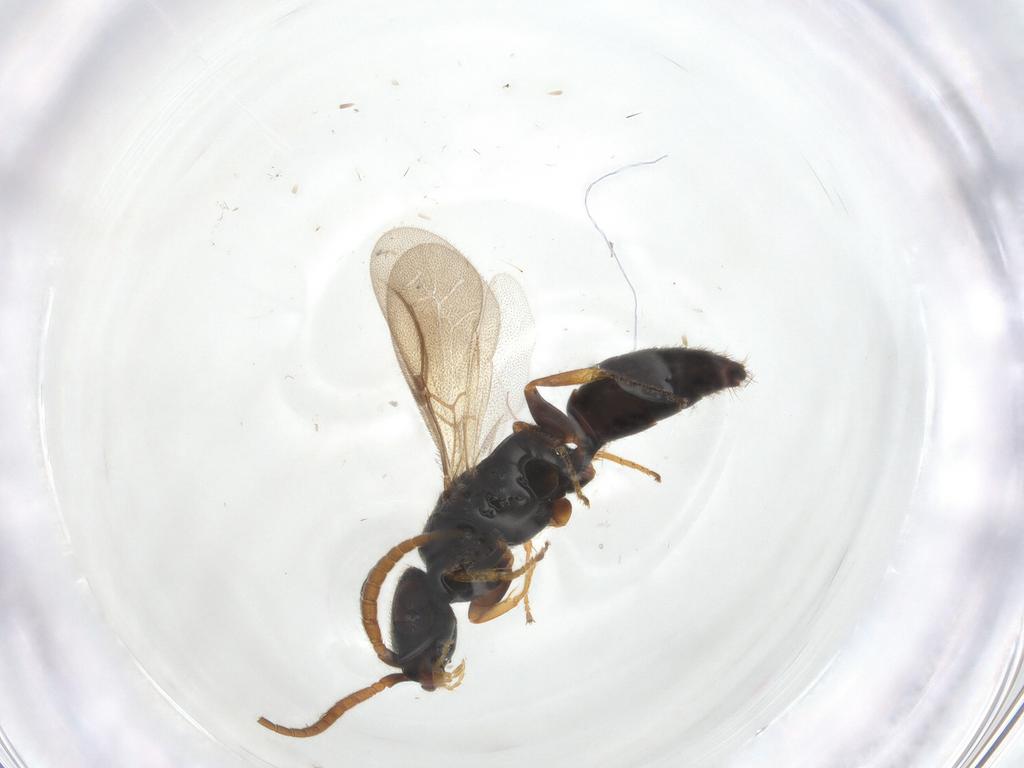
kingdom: Animalia
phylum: Arthropoda
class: Insecta
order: Hymenoptera
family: Bethylidae
